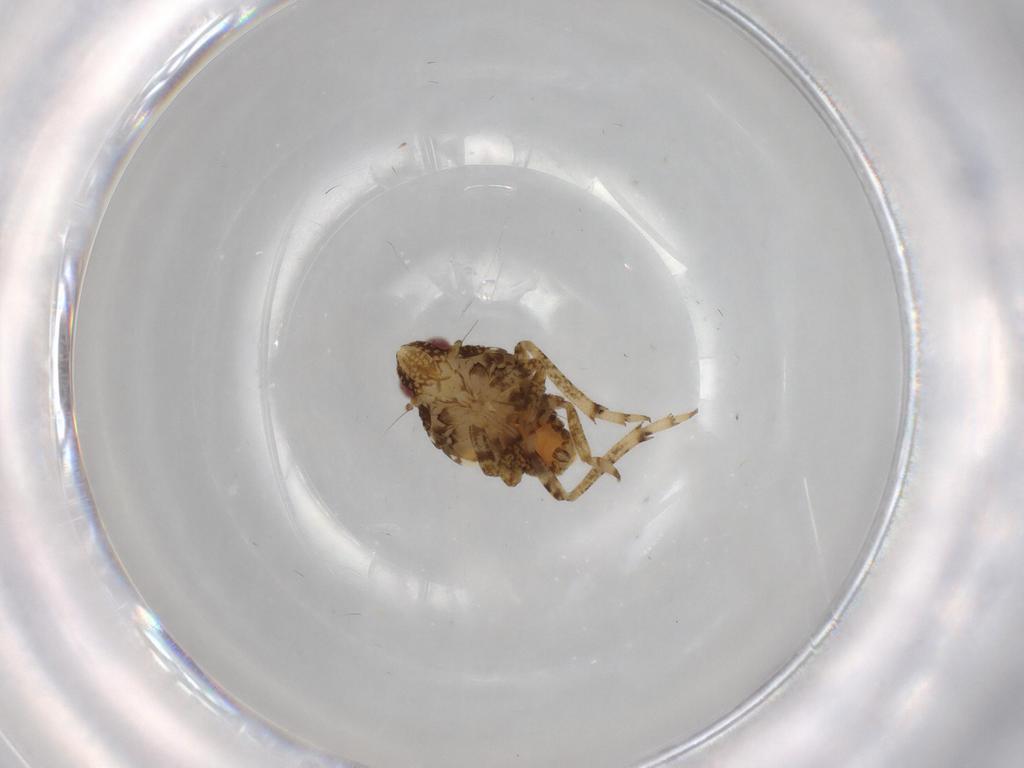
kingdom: Animalia
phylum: Arthropoda
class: Insecta
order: Hemiptera
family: Issidae
